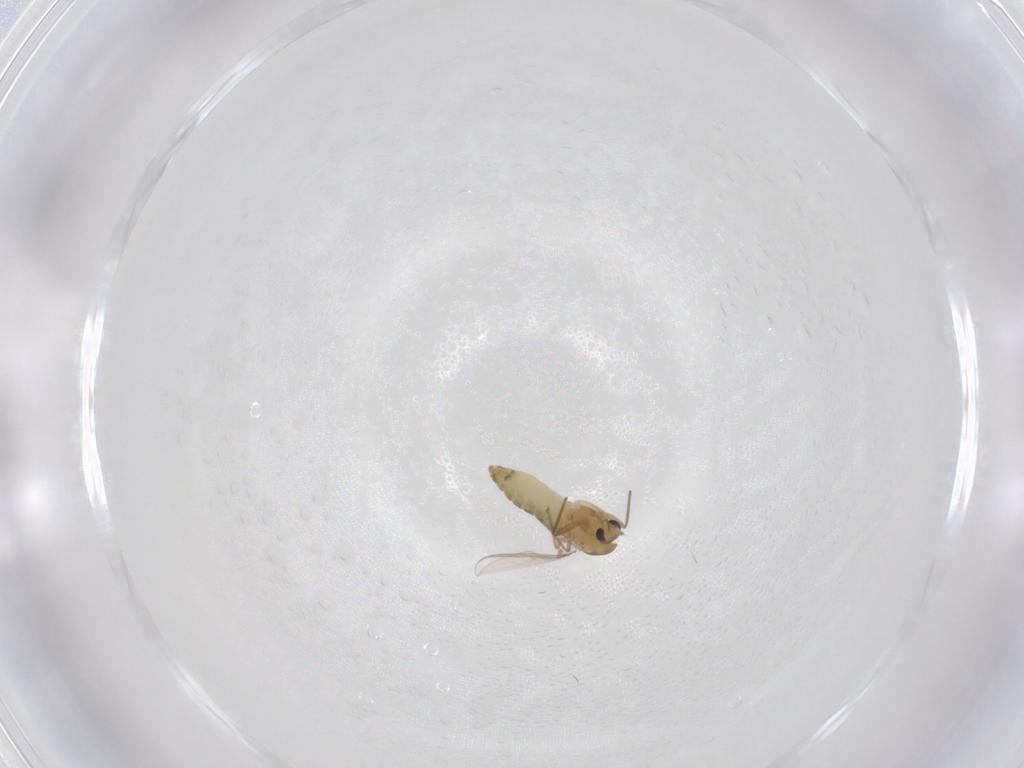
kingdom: Animalia
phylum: Arthropoda
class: Insecta
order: Diptera
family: Chironomidae
